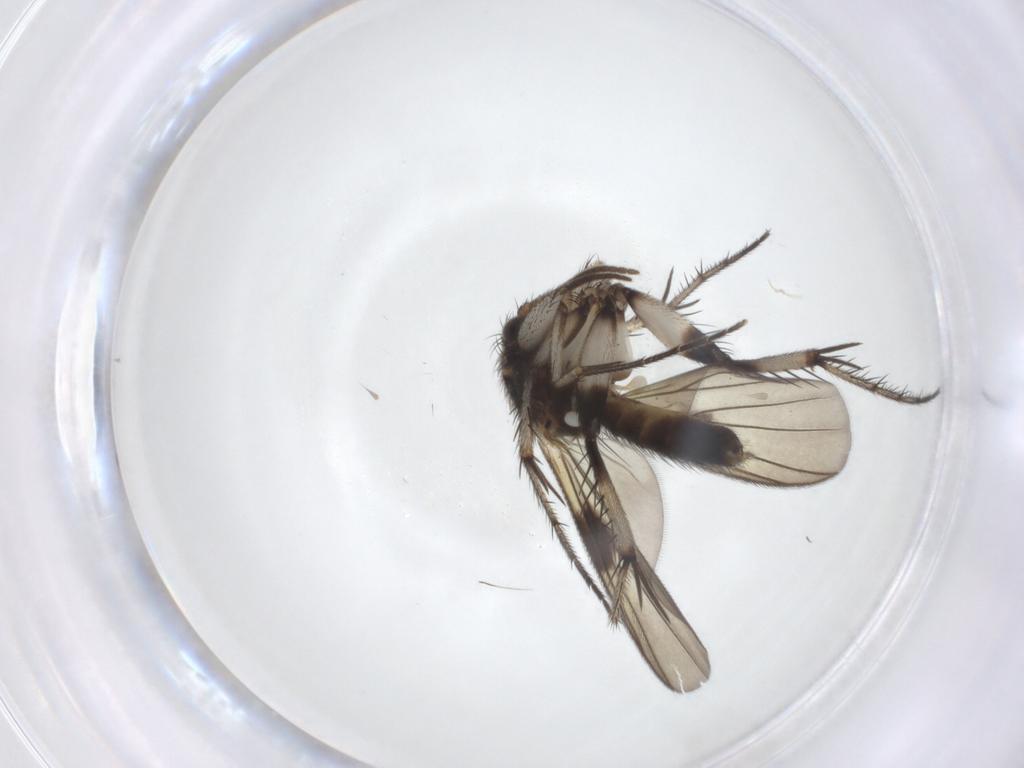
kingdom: Animalia
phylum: Arthropoda
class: Insecta
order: Diptera
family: Mycetophilidae
